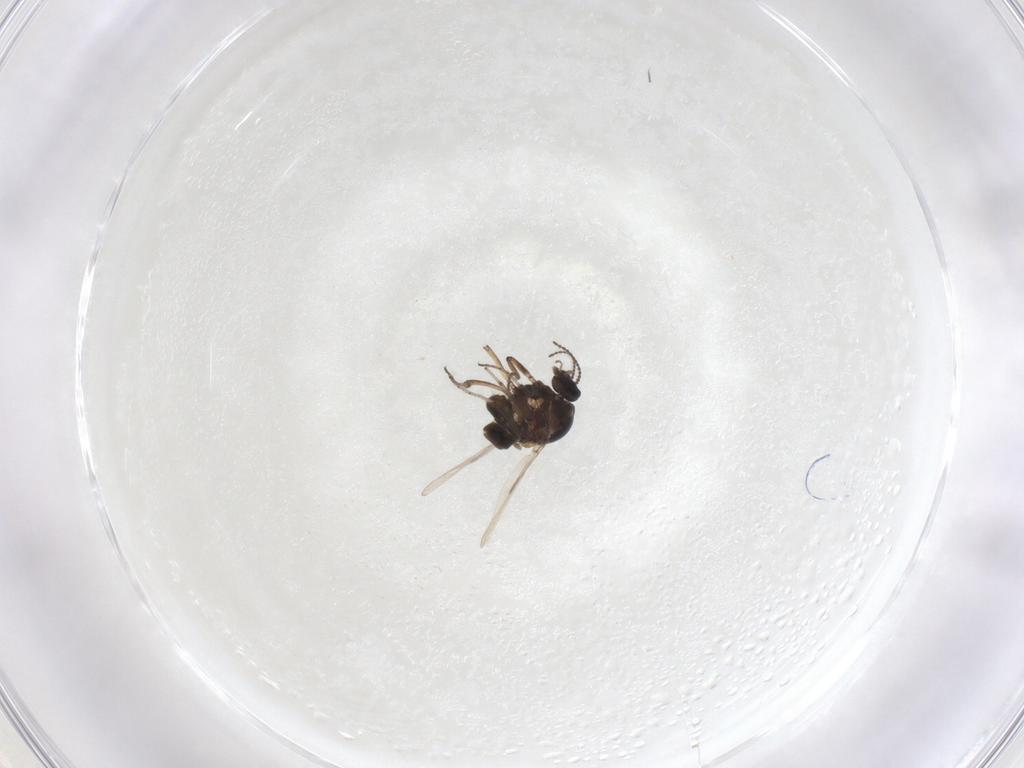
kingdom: Animalia
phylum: Arthropoda
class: Insecta
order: Diptera
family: Ceratopogonidae
